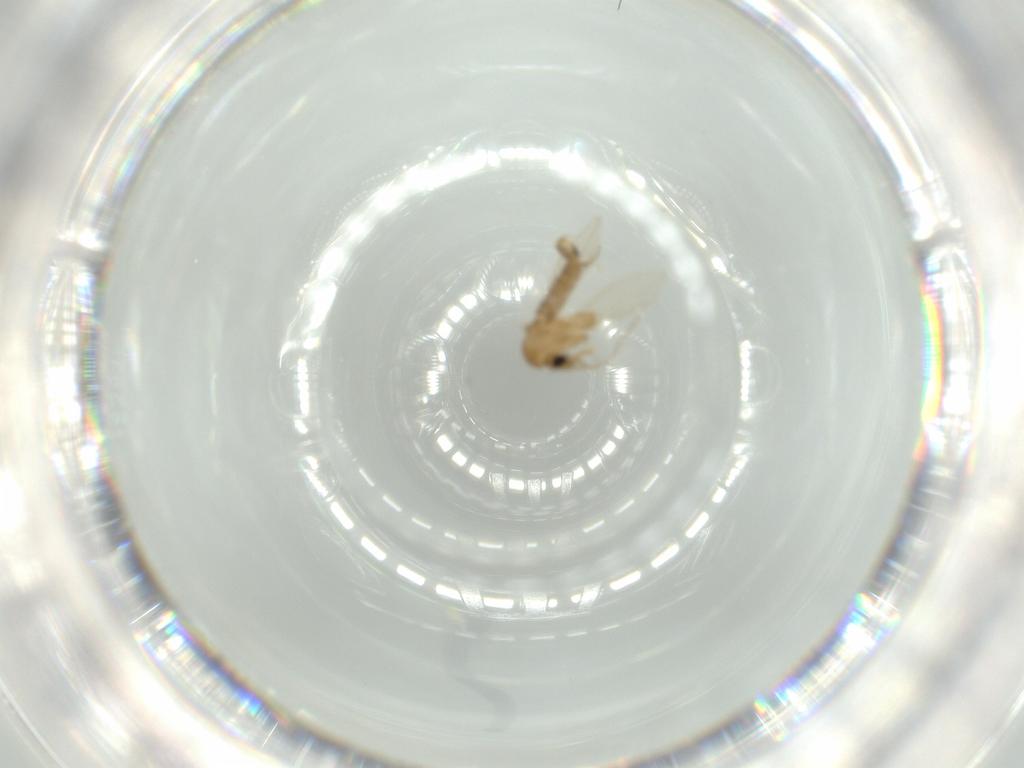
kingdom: Animalia
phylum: Arthropoda
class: Insecta
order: Diptera
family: Psychodidae
